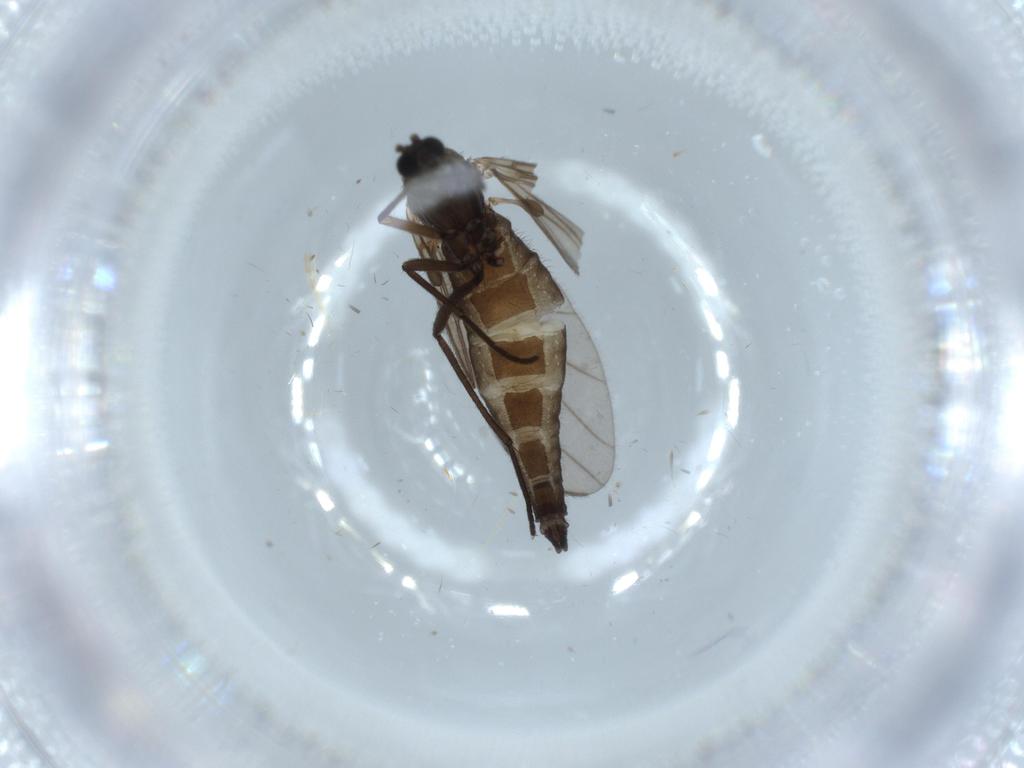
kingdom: Animalia
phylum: Arthropoda
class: Insecta
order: Diptera
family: Sciaridae
